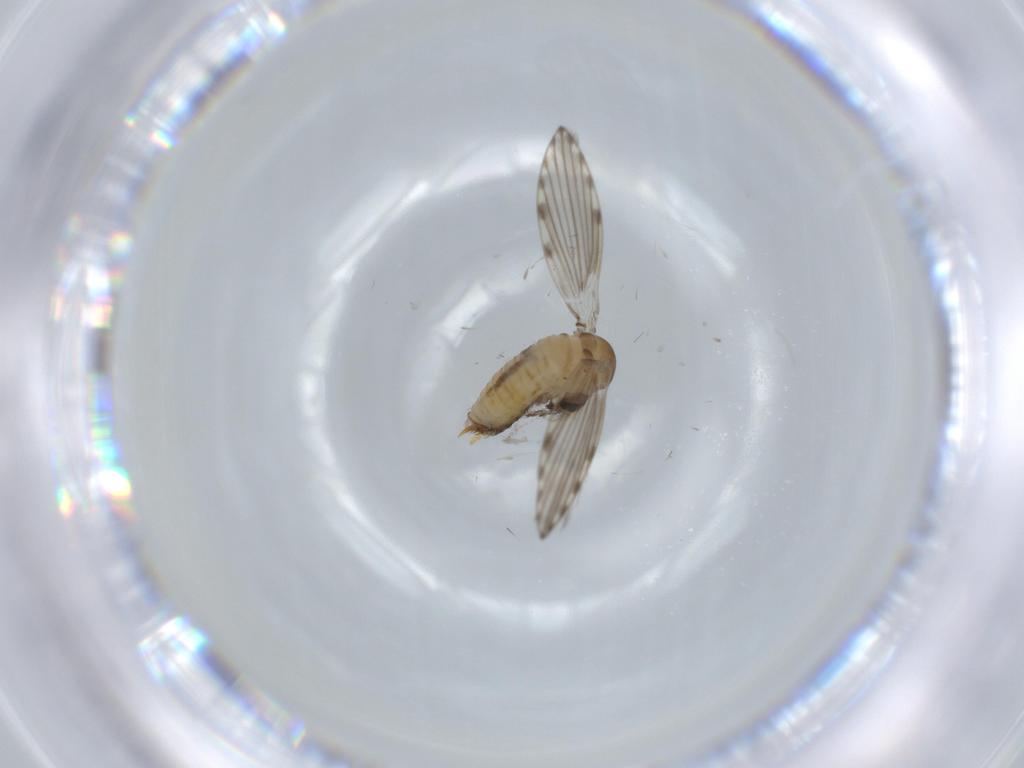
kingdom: Animalia
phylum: Arthropoda
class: Insecta
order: Diptera
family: Psychodidae
